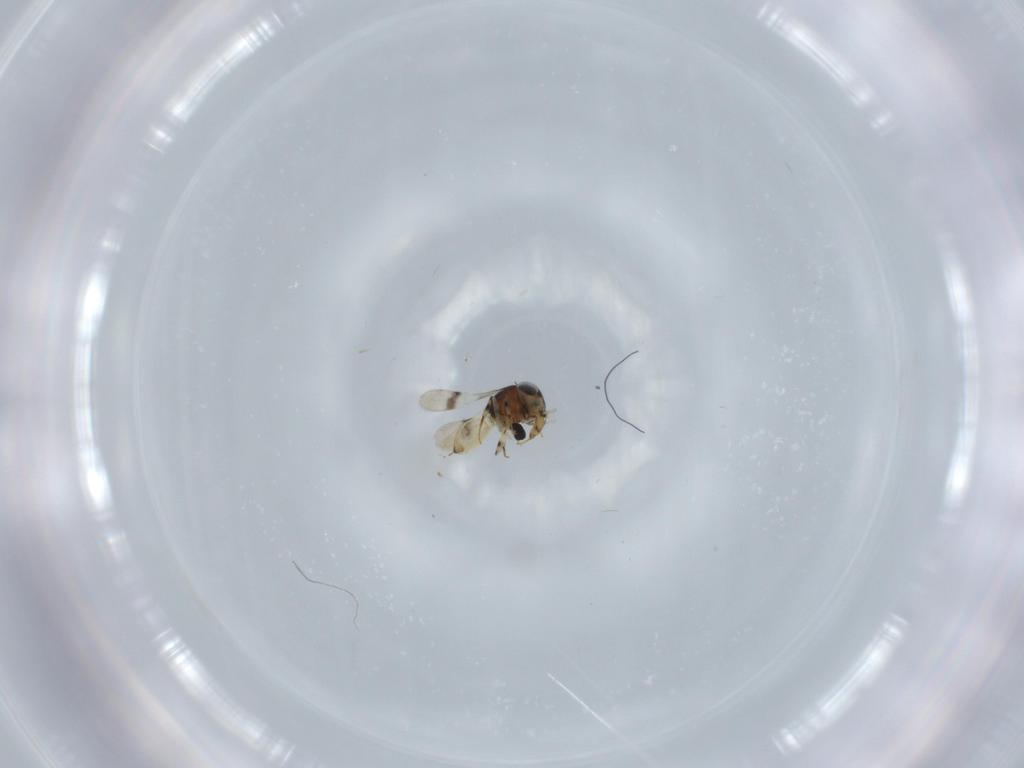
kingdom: Animalia
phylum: Arthropoda
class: Insecta
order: Hymenoptera
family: Scelionidae
